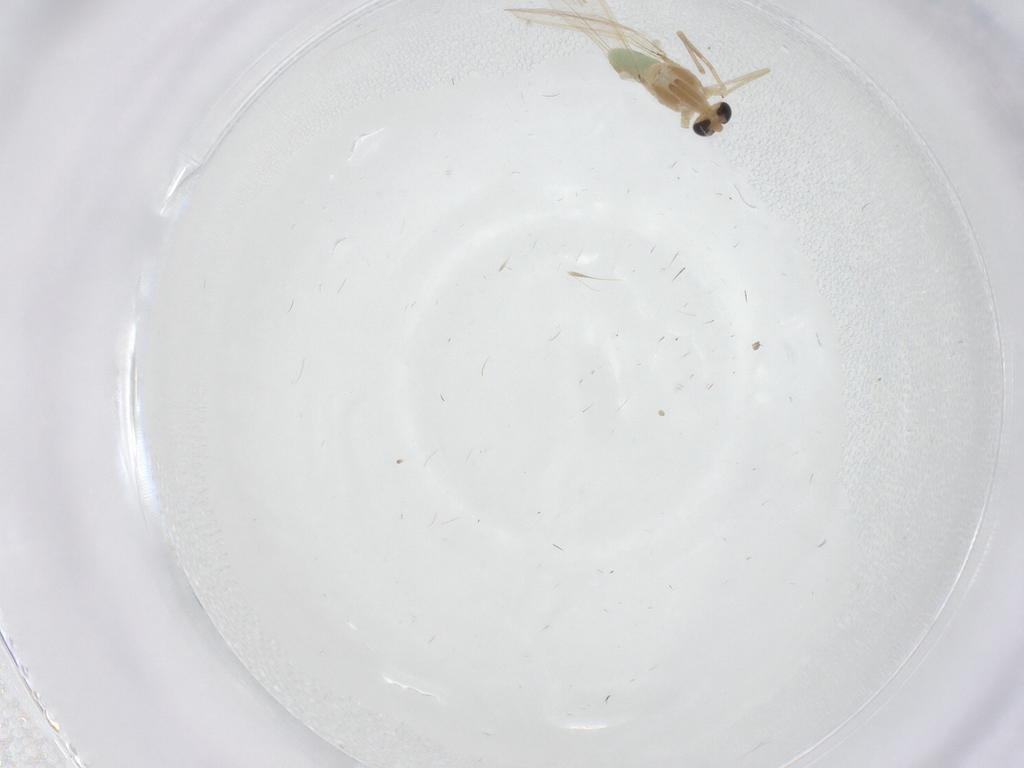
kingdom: Animalia
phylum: Arthropoda
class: Insecta
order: Diptera
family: Chironomidae
